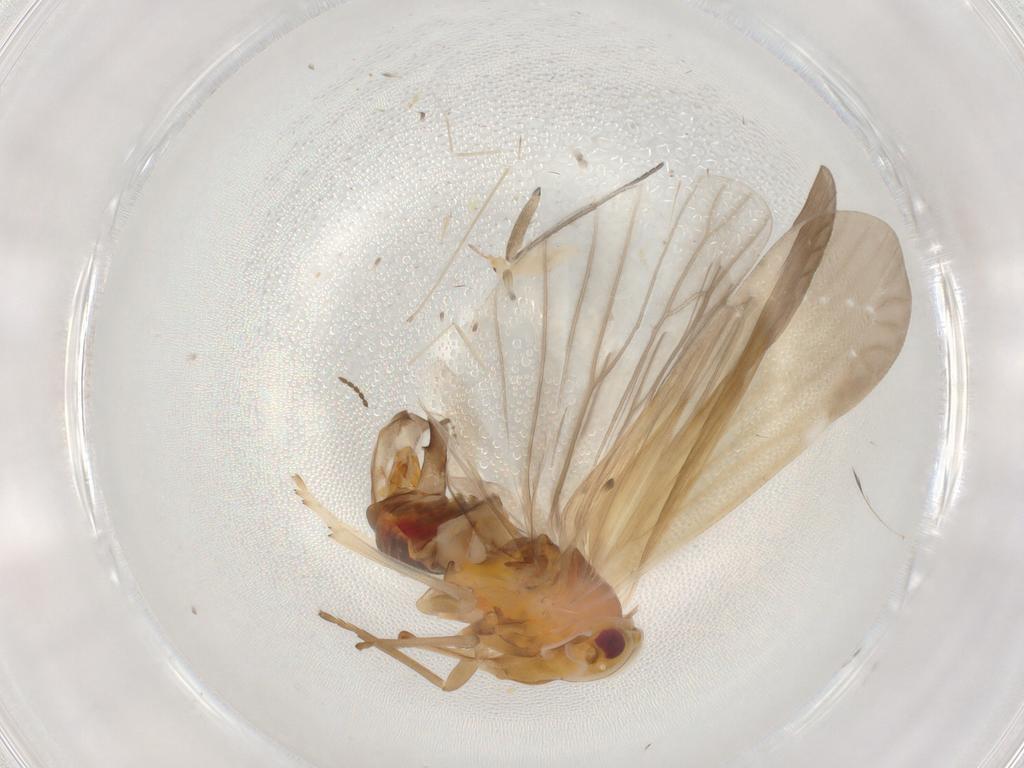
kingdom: Animalia
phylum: Arthropoda
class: Insecta
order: Hemiptera
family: Derbidae
